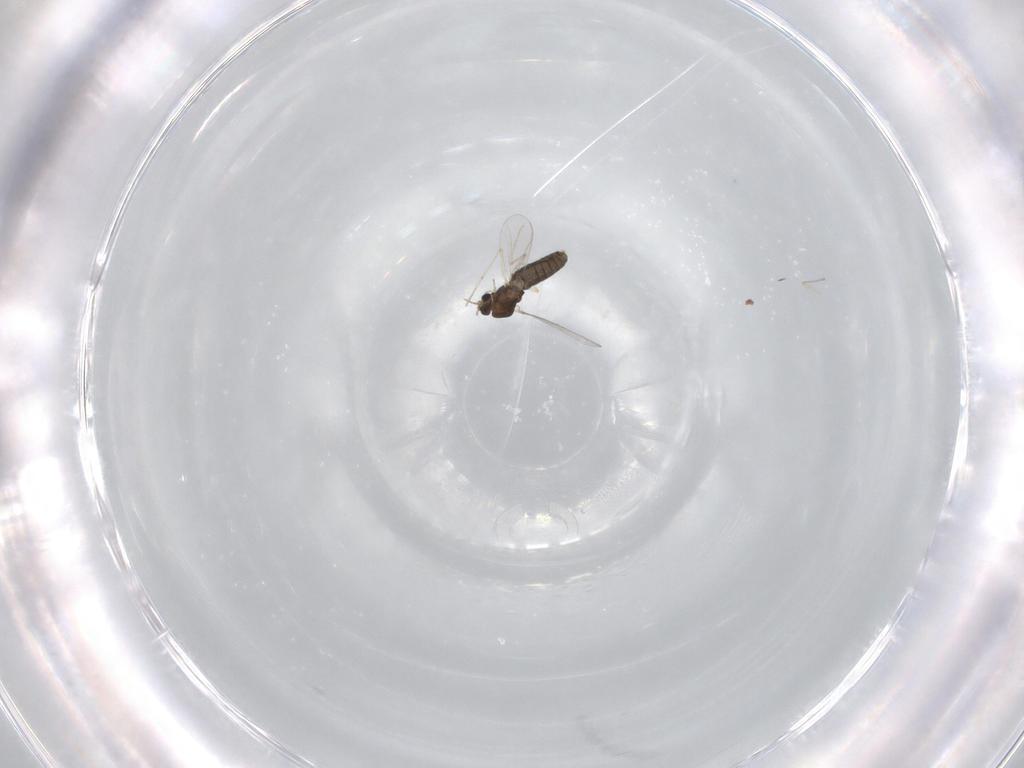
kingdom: Animalia
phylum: Arthropoda
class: Insecta
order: Diptera
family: Chironomidae
